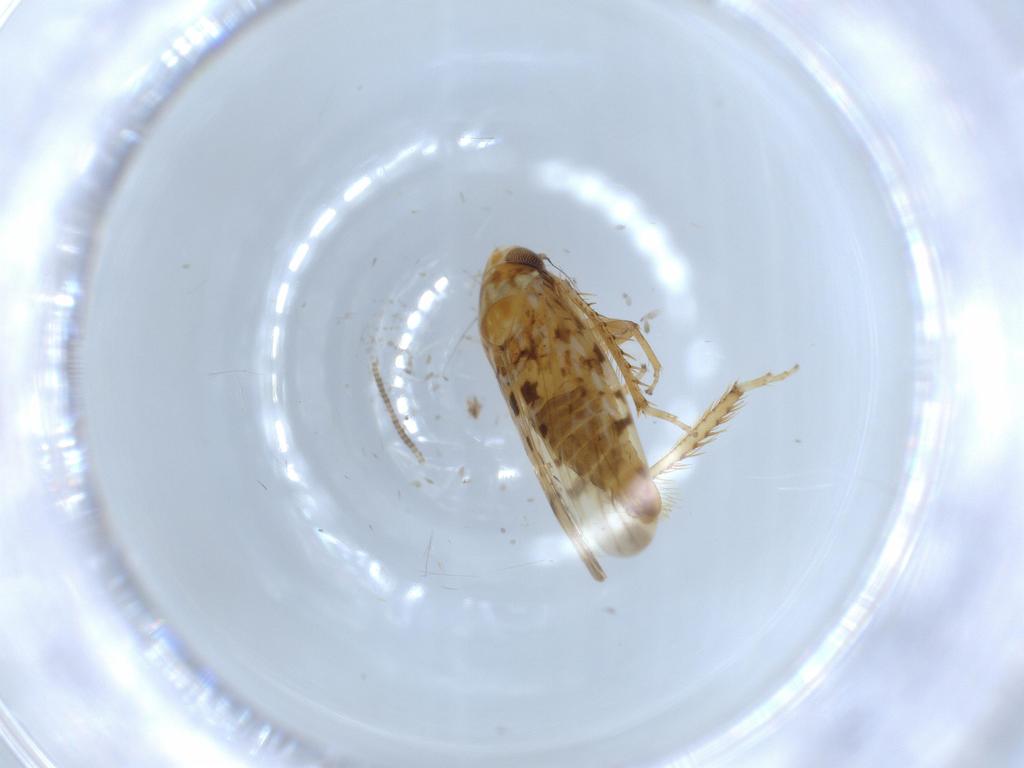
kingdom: Animalia
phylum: Arthropoda
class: Insecta
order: Hemiptera
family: Cicadellidae
